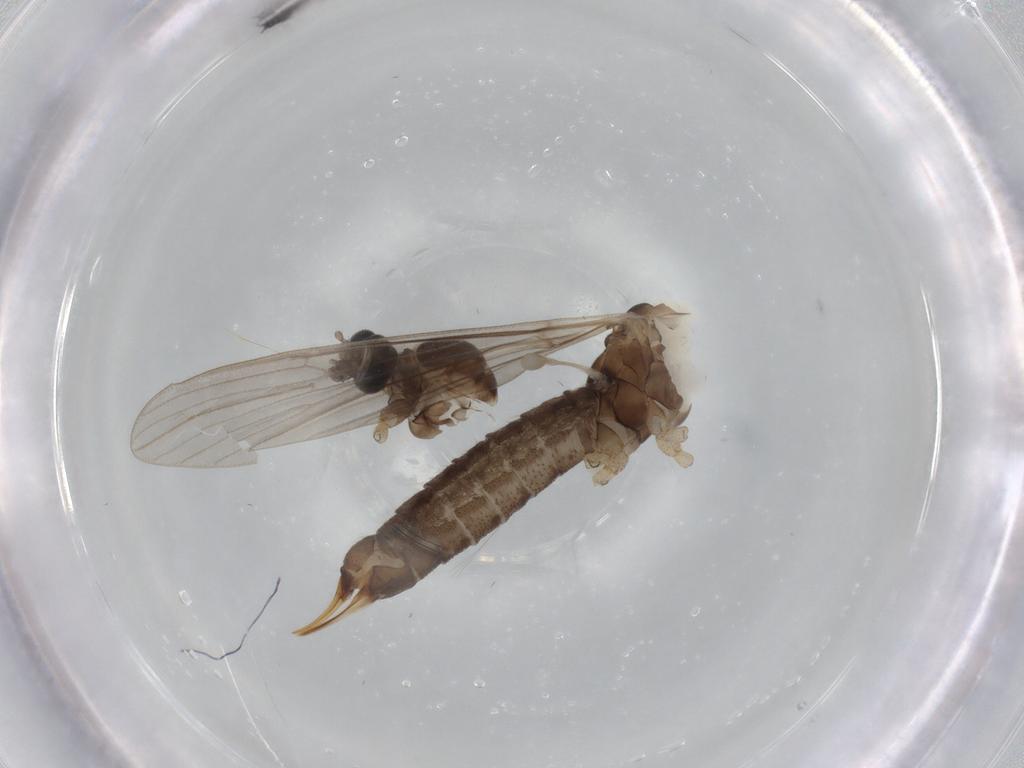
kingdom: Animalia
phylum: Arthropoda
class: Insecta
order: Diptera
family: Limoniidae
